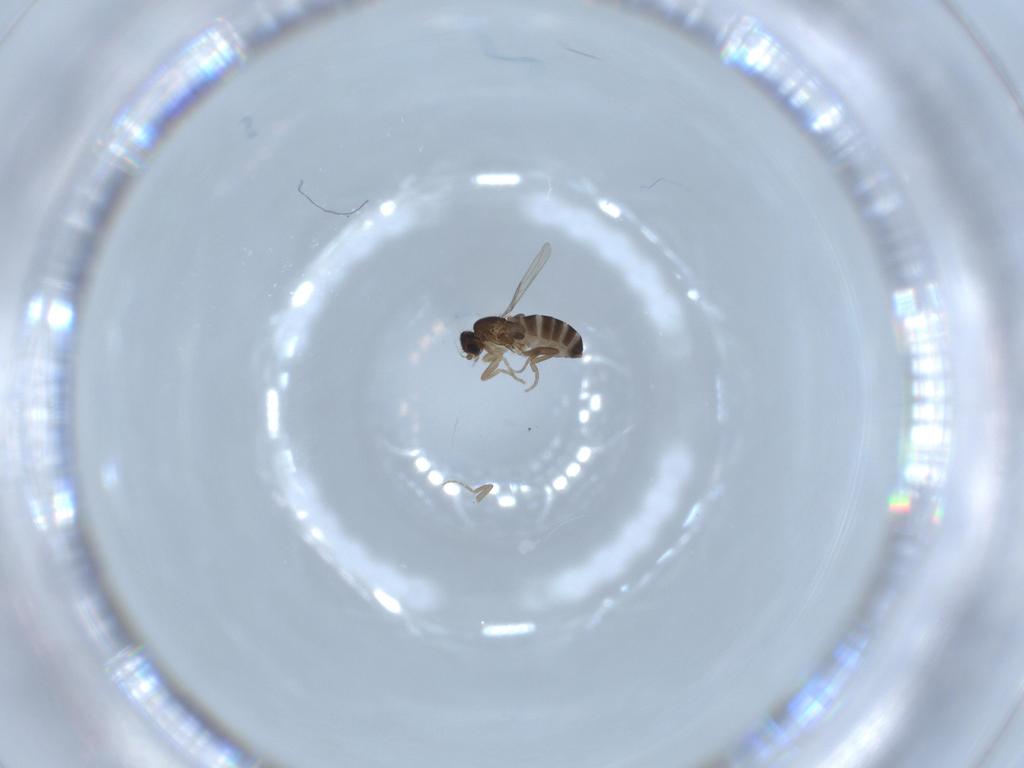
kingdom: Animalia
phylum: Arthropoda
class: Insecta
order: Diptera
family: Phoridae
